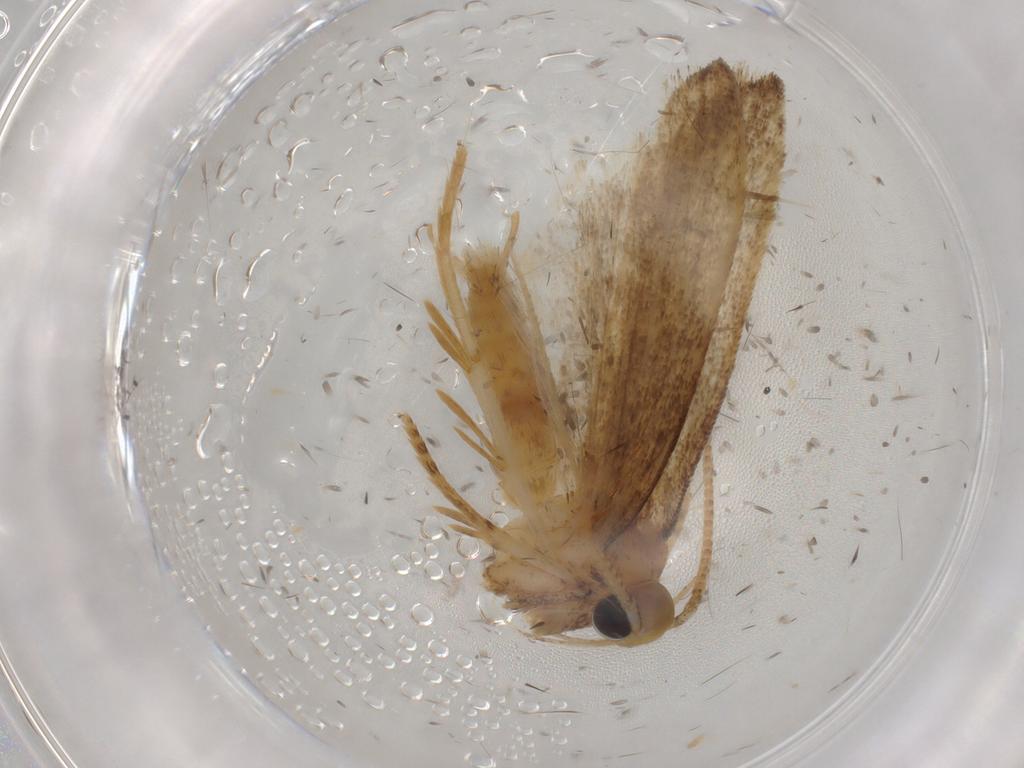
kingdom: Animalia
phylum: Arthropoda
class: Insecta
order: Lepidoptera
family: Autostichidae
